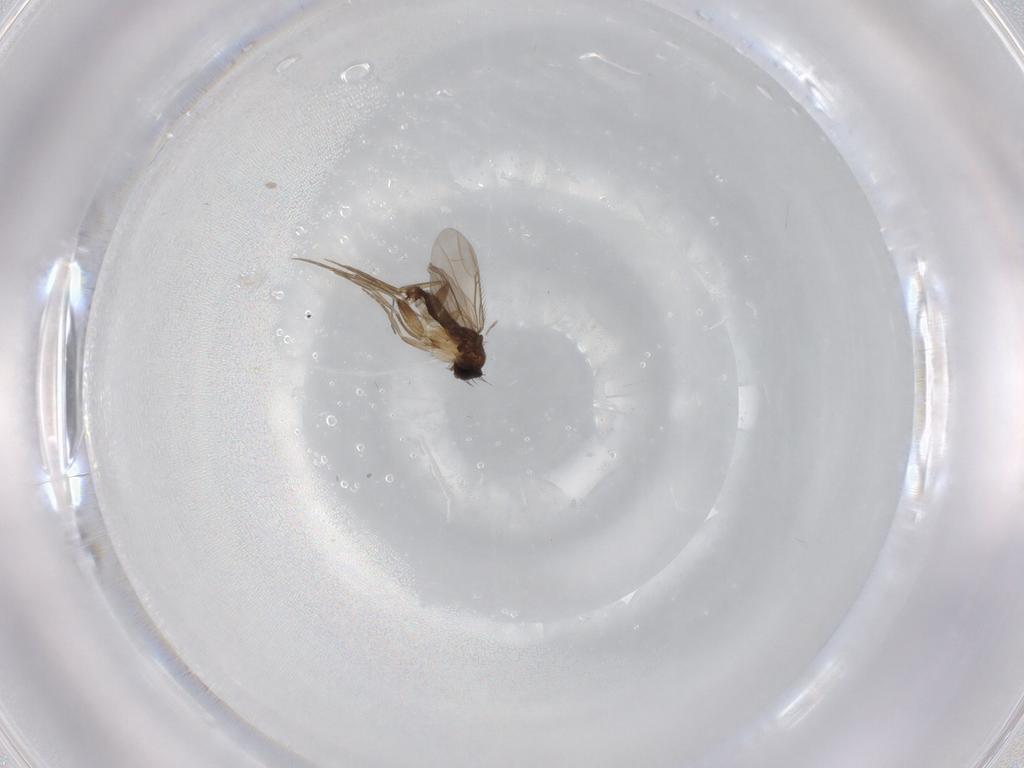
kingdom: Animalia
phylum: Arthropoda
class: Insecta
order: Diptera
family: Phoridae
